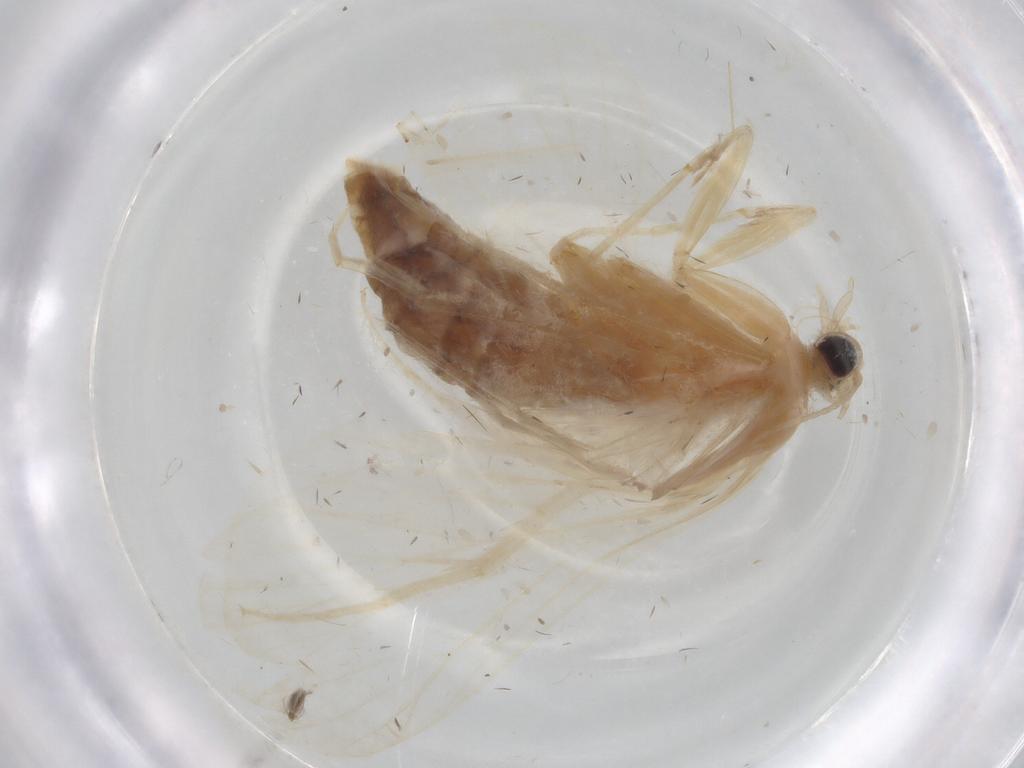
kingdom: Animalia
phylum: Arthropoda
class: Insecta
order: Lepidoptera
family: Crambidae
